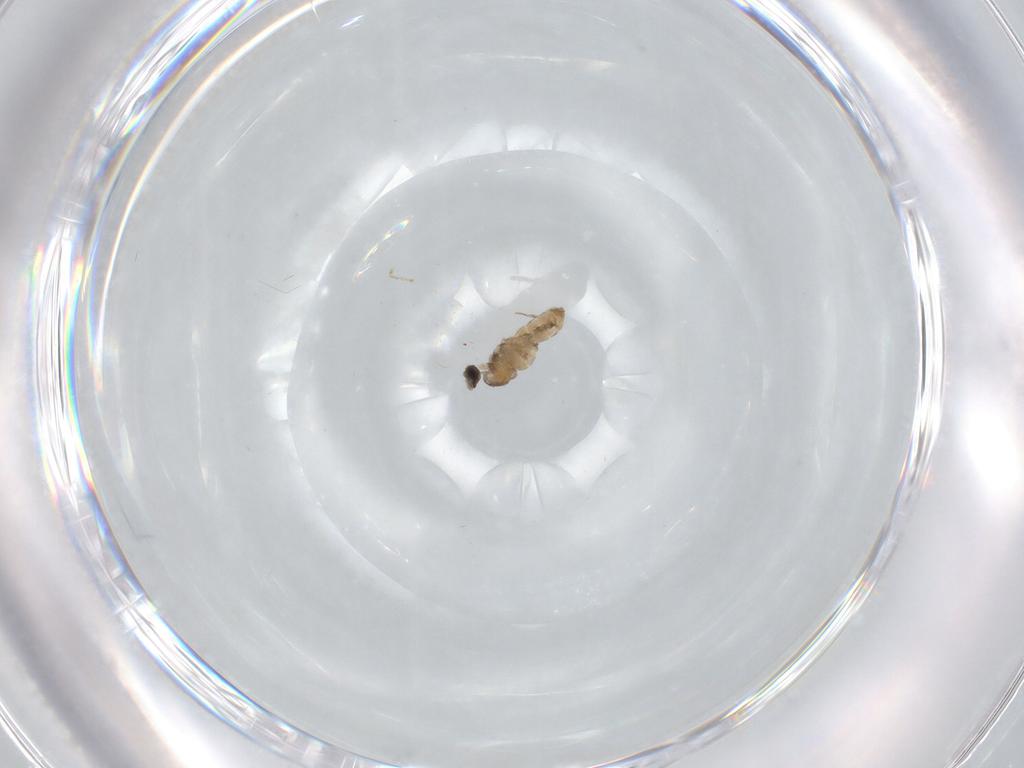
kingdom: Animalia
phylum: Arthropoda
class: Insecta
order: Diptera
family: Cecidomyiidae
